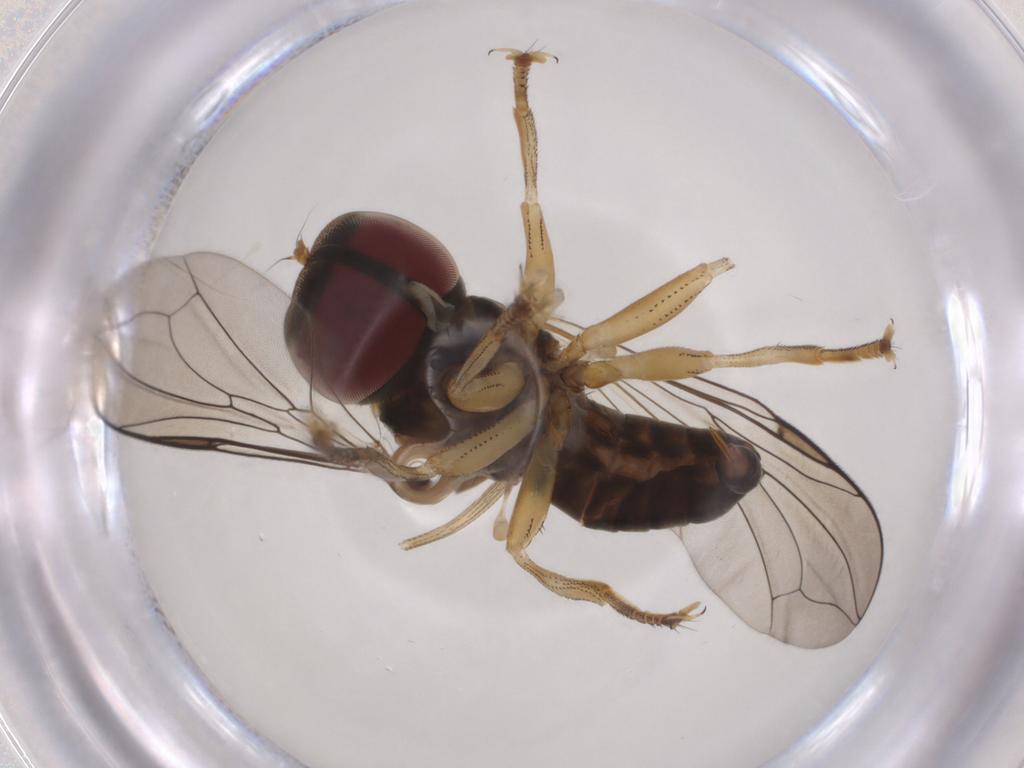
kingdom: Animalia
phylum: Arthropoda
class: Insecta
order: Diptera
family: Pipunculidae
